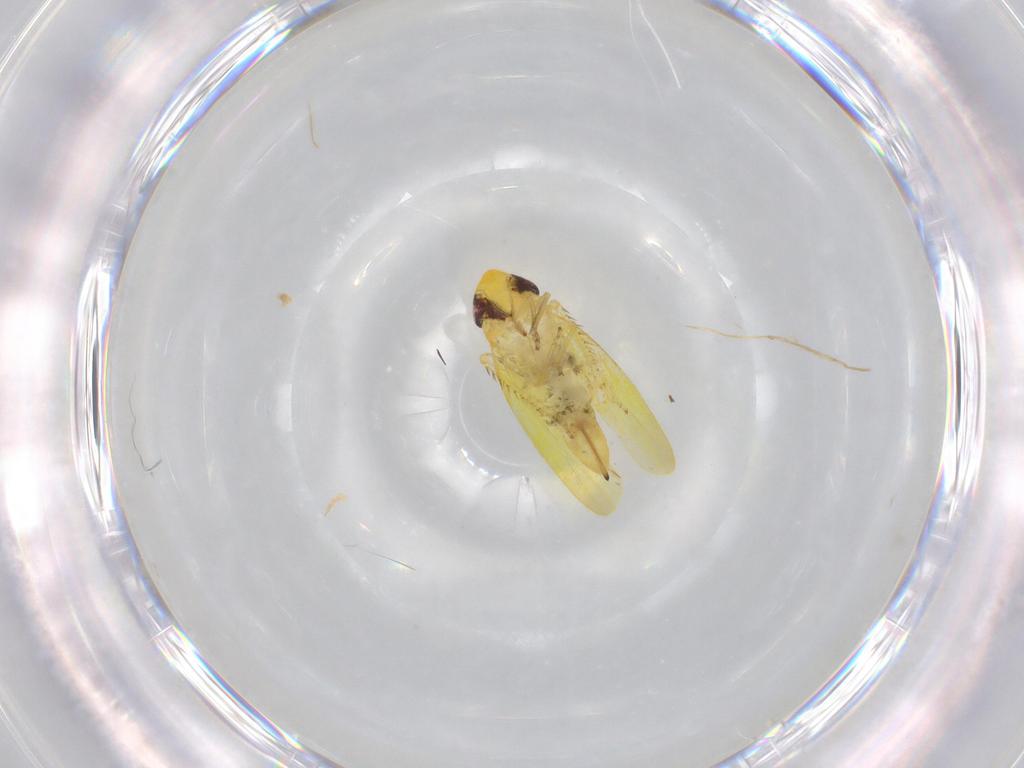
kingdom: Animalia
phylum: Arthropoda
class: Insecta
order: Hemiptera
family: Cicadellidae
